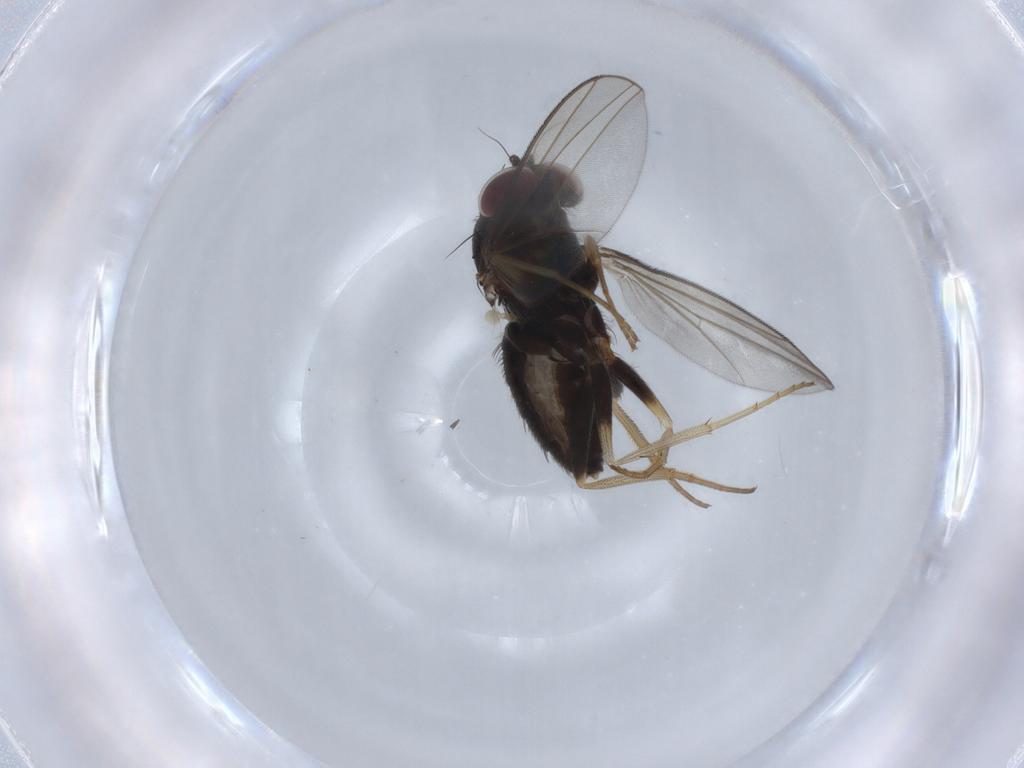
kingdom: Animalia
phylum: Arthropoda
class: Insecta
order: Diptera
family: Dolichopodidae
